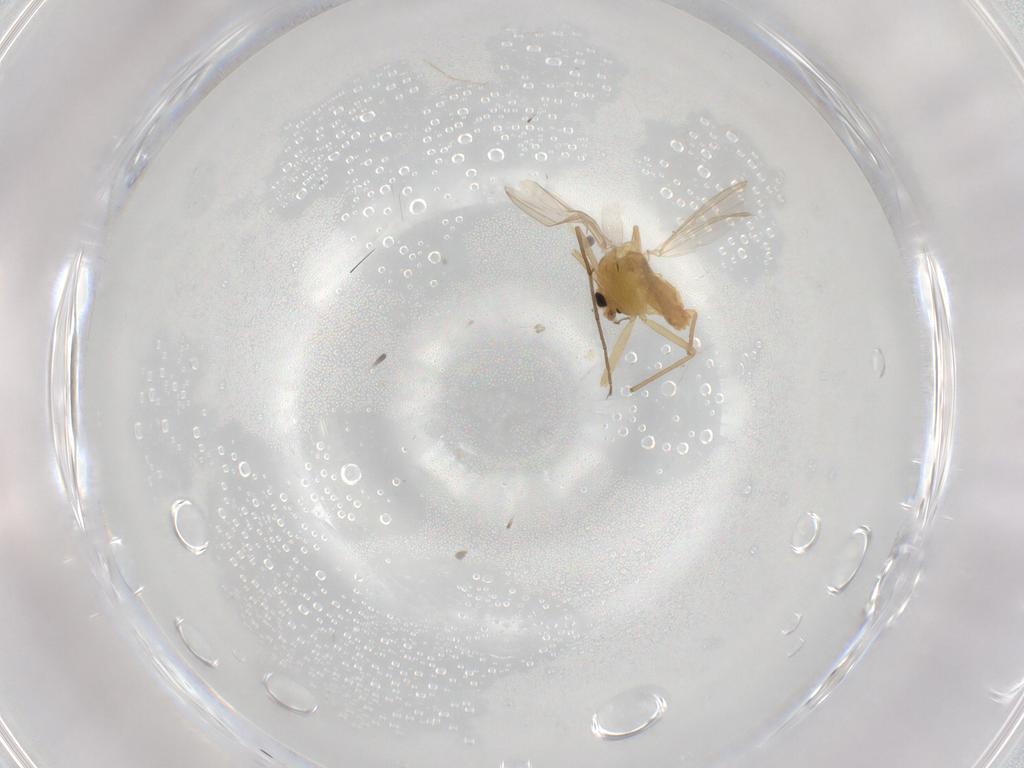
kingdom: Animalia
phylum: Arthropoda
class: Insecta
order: Diptera
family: Chironomidae
